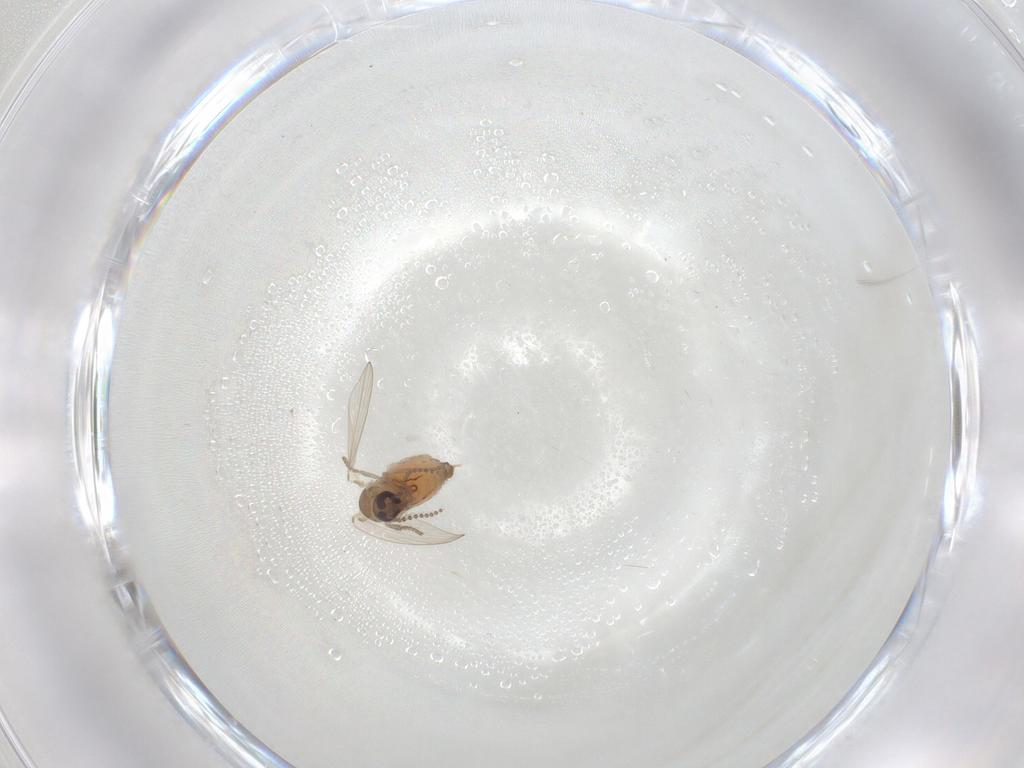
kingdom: Animalia
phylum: Arthropoda
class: Insecta
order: Diptera
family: Psychodidae
